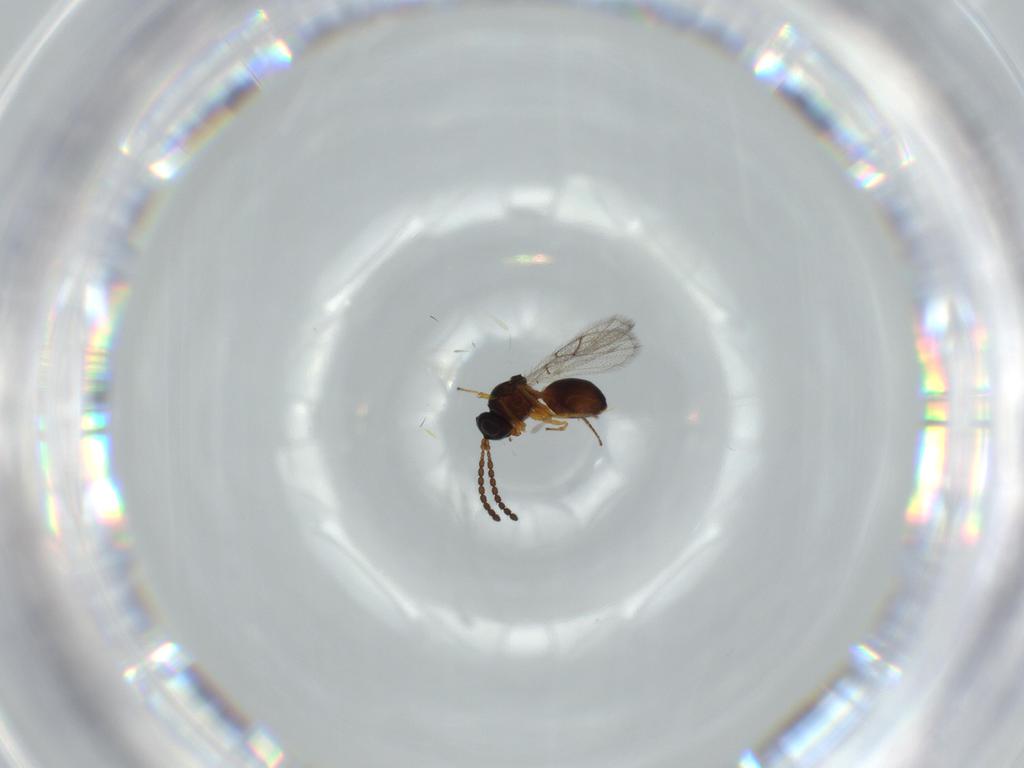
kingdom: Animalia
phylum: Arthropoda
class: Insecta
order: Hymenoptera
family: Figitidae
